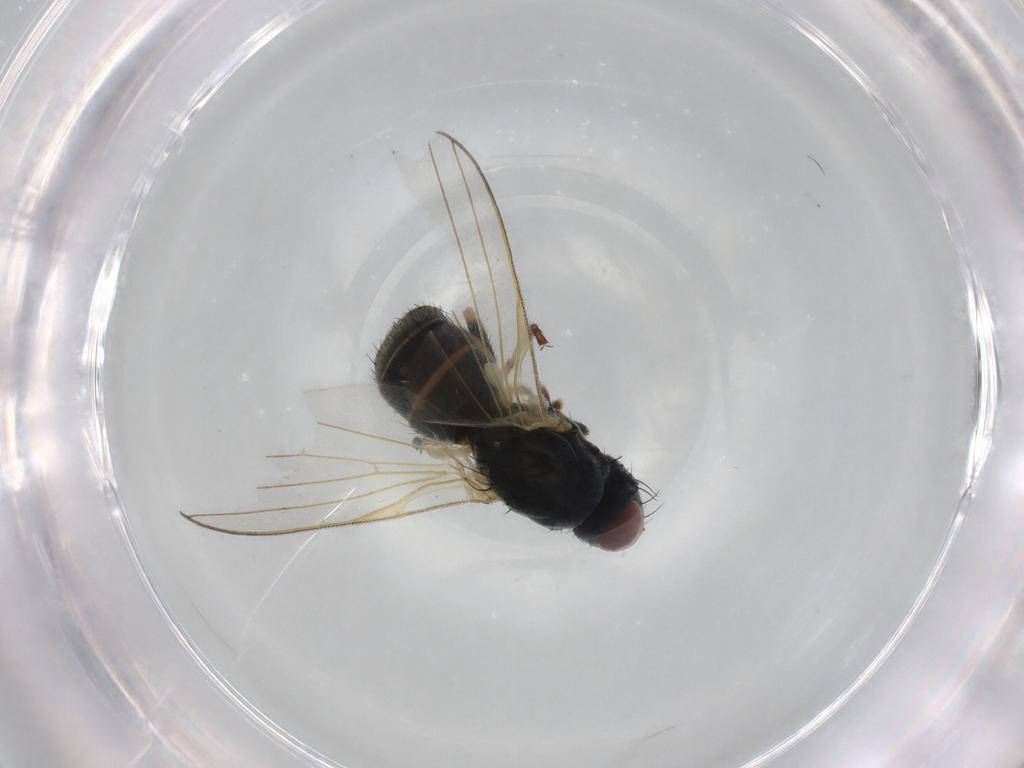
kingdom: Animalia
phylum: Arthropoda
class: Insecta
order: Diptera
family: Chamaemyiidae
